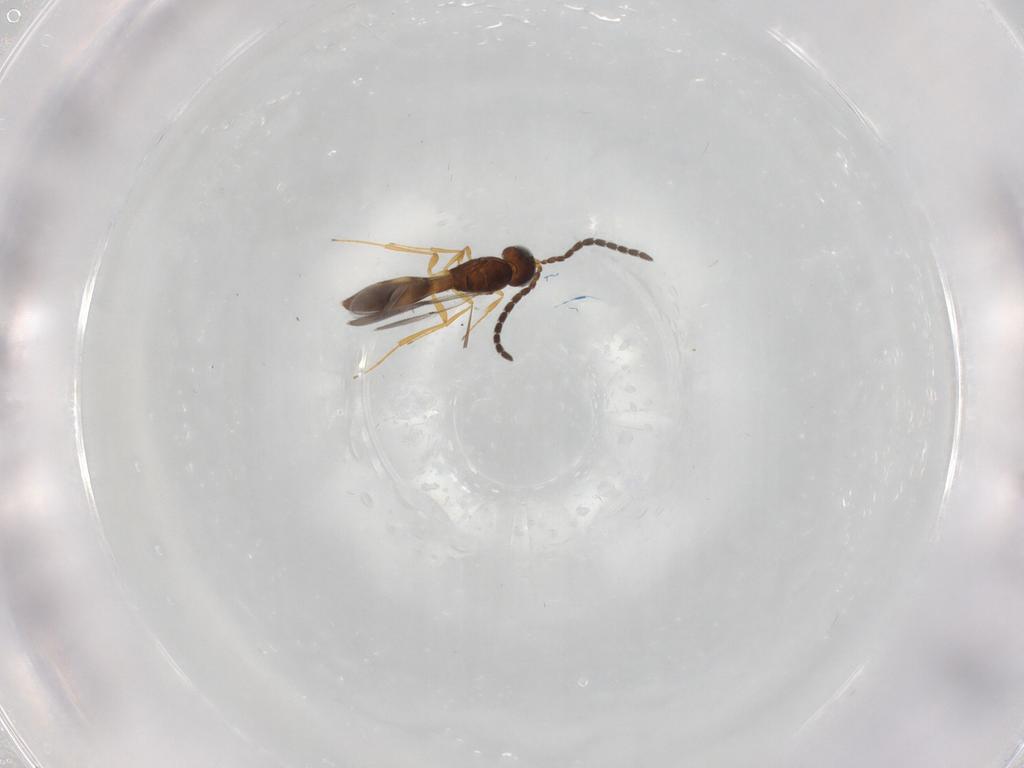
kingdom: Animalia
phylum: Arthropoda
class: Insecta
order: Hymenoptera
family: Scelionidae
